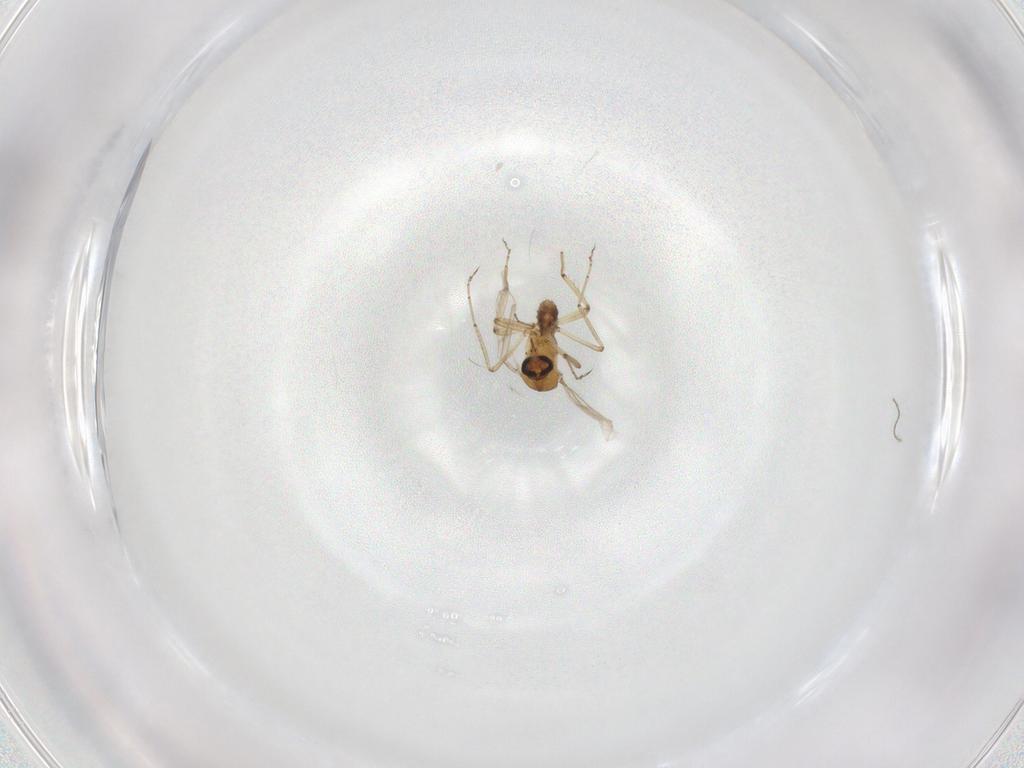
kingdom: Animalia
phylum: Arthropoda
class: Insecta
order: Diptera
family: Ceratopogonidae
